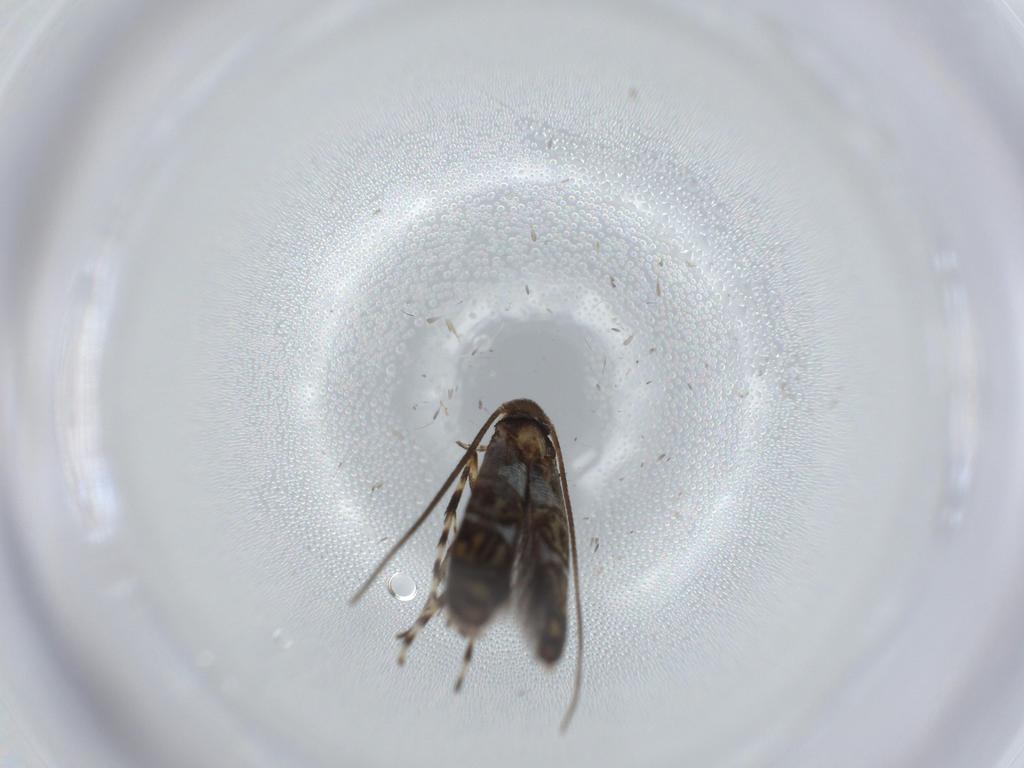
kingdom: Animalia
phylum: Arthropoda
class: Insecta
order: Lepidoptera
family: Gracillariidae
